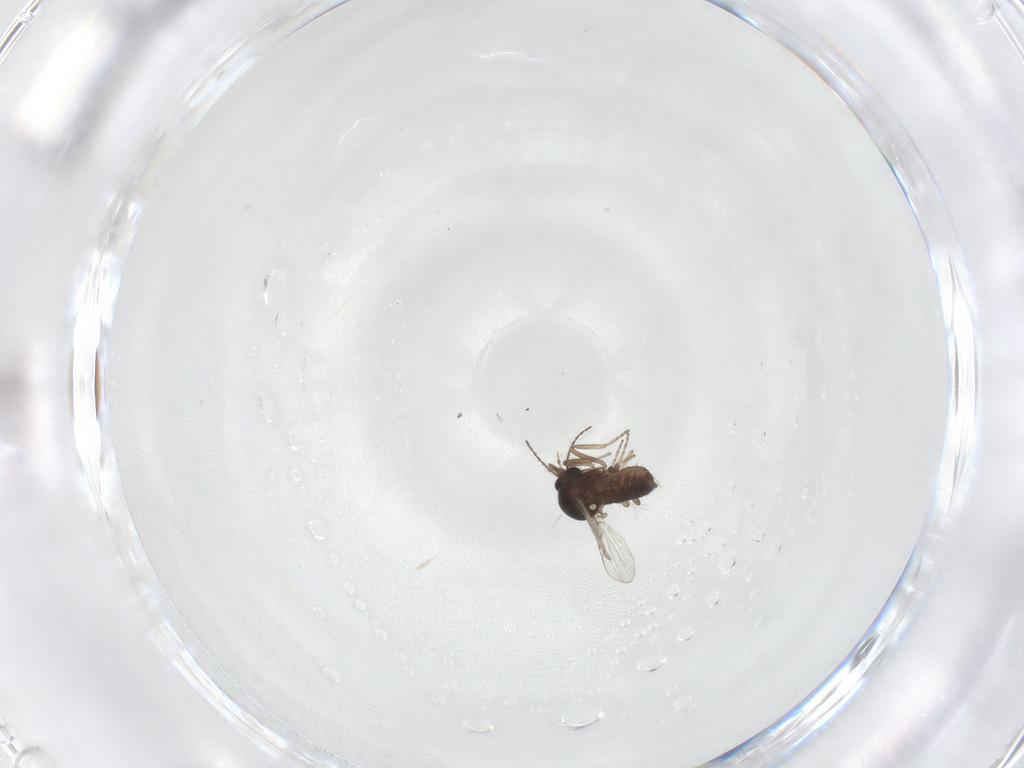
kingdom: Animalia
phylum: Arthropoda
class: Insecta
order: Diptera
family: Ceratopogonidae
